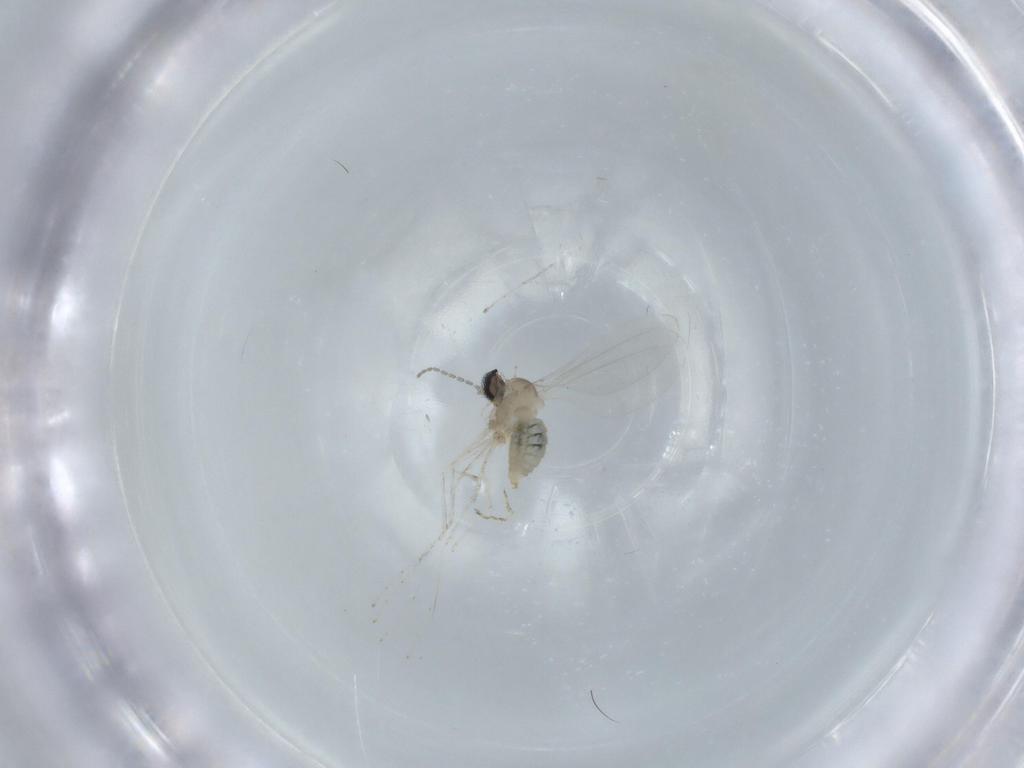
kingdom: Animalia
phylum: Arthropoda
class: Insecta
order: Diptera
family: Cecidomyiidae
